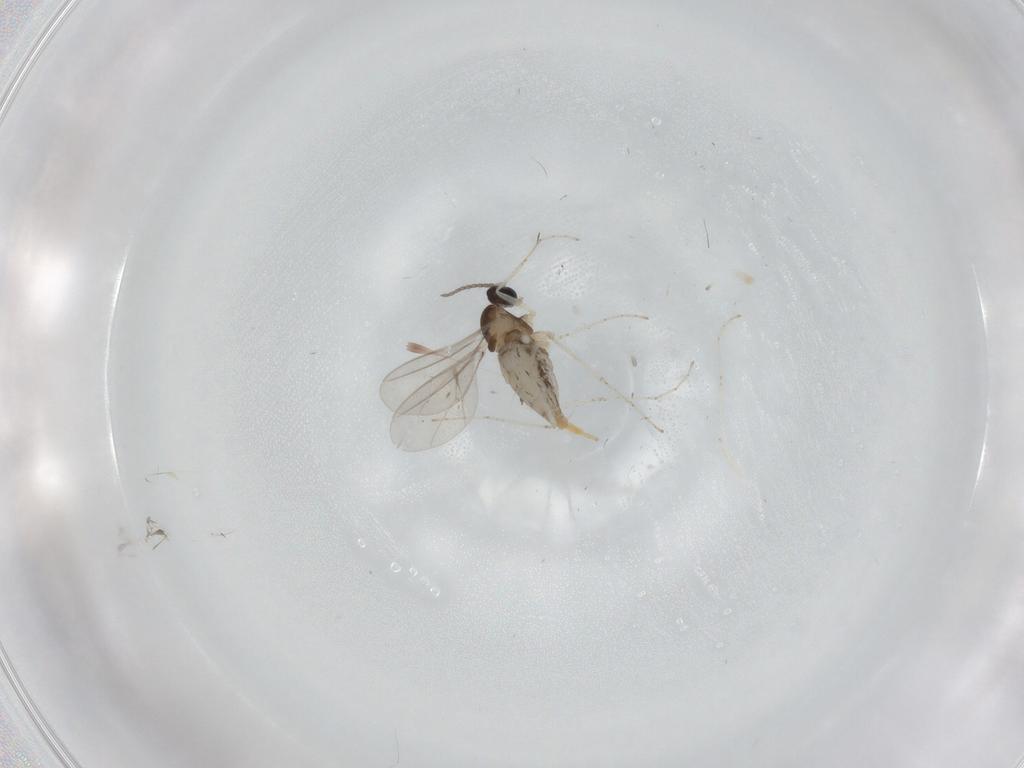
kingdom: Animalia
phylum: Arthropoda
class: Insecta
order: Diptera
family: Cecidomyiidae
